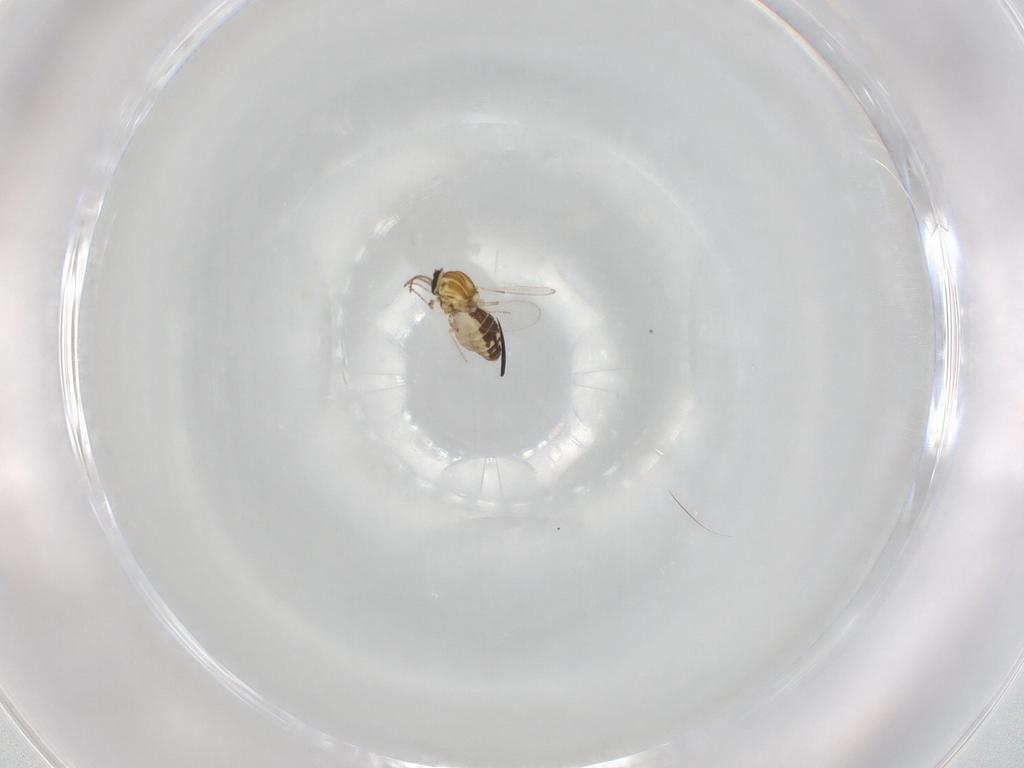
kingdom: Animalia
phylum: Arthropoda
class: Insecta
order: Diptera
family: Ceratopogonidae
